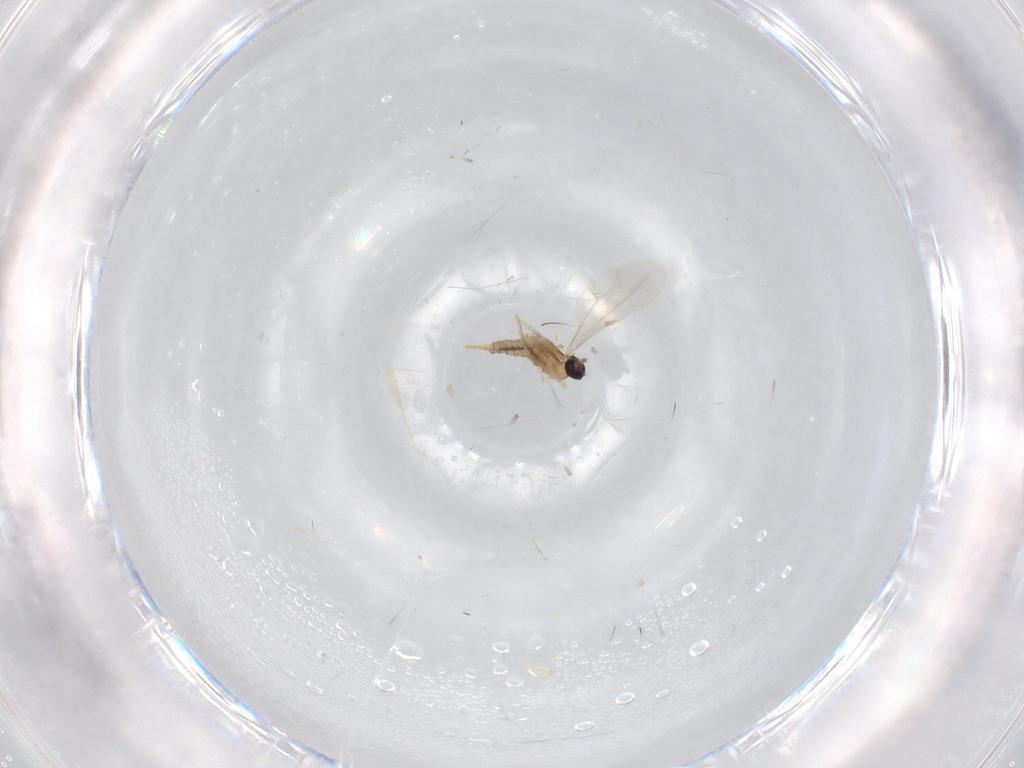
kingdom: Animalia
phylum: Arthropoda
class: Insecta
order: Diptera
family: Cecidomyiidae
